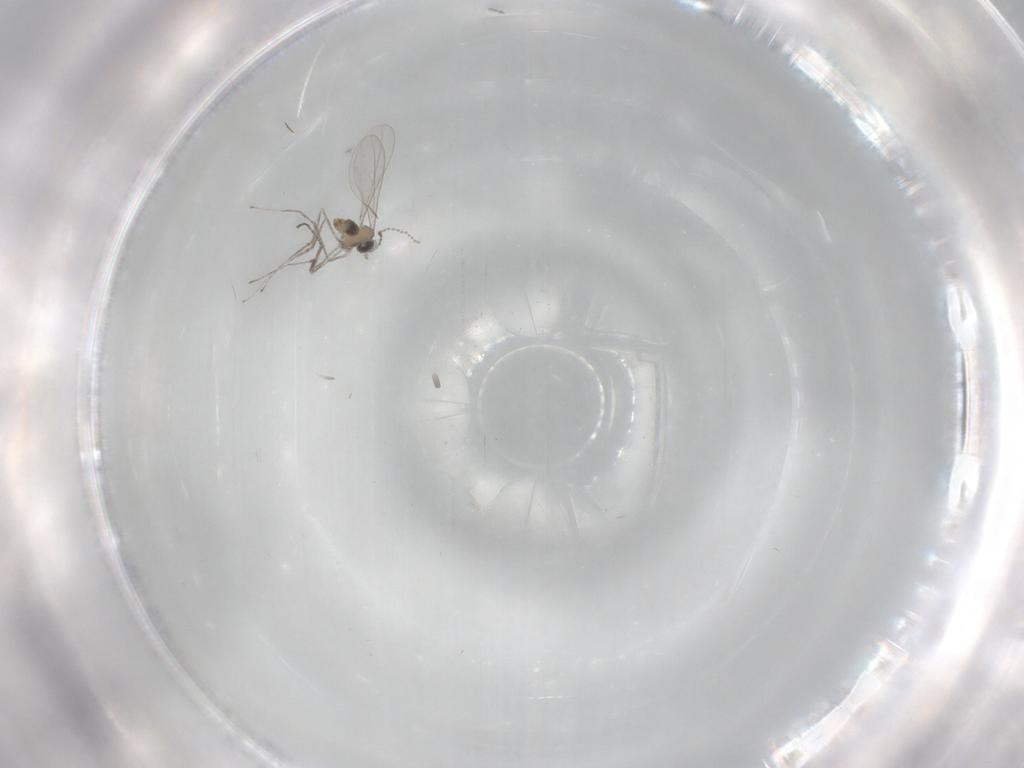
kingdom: Animalia
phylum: Arthropoda
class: Insecta
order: Diptera
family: Cecidomyiidae
